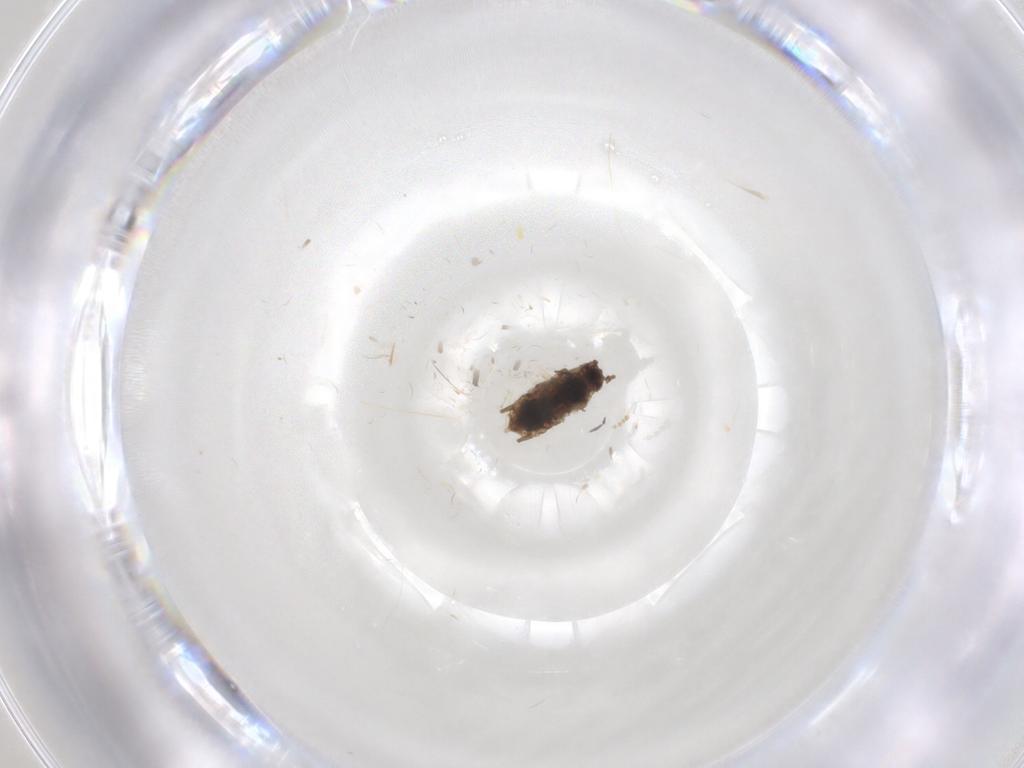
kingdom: Animalia
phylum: Arthropoda
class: Insecta
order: Hemiptera
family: Aphididae
